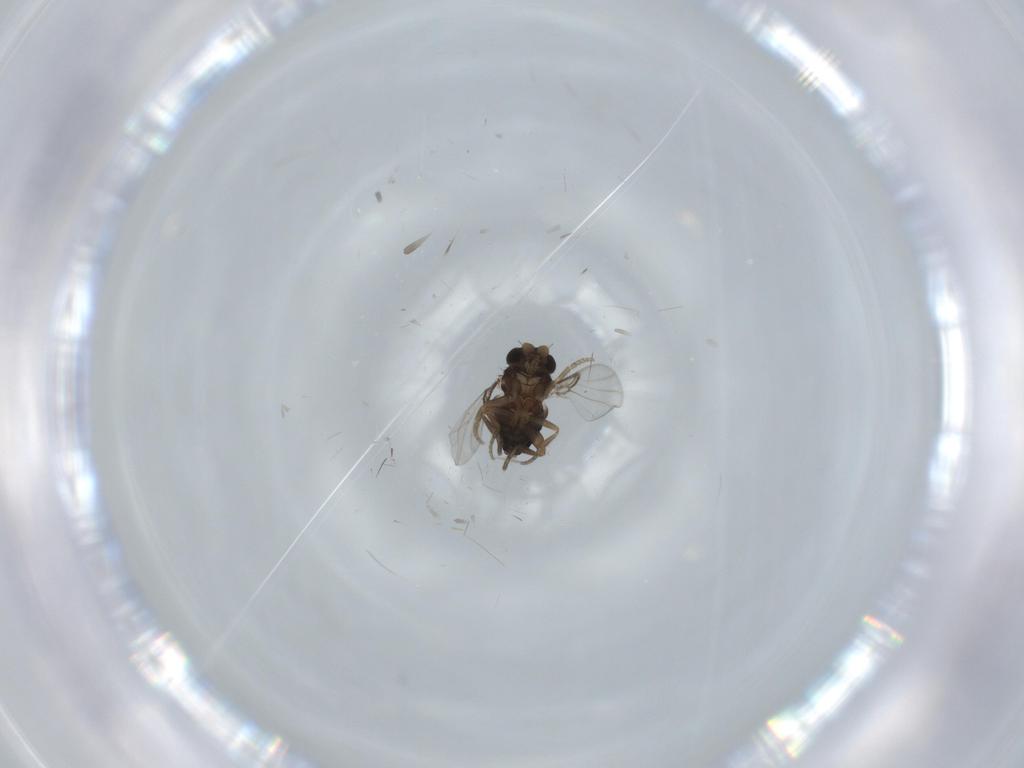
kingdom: Animalia
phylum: Arthropoda
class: Insecta
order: Diptera
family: Phoridae
